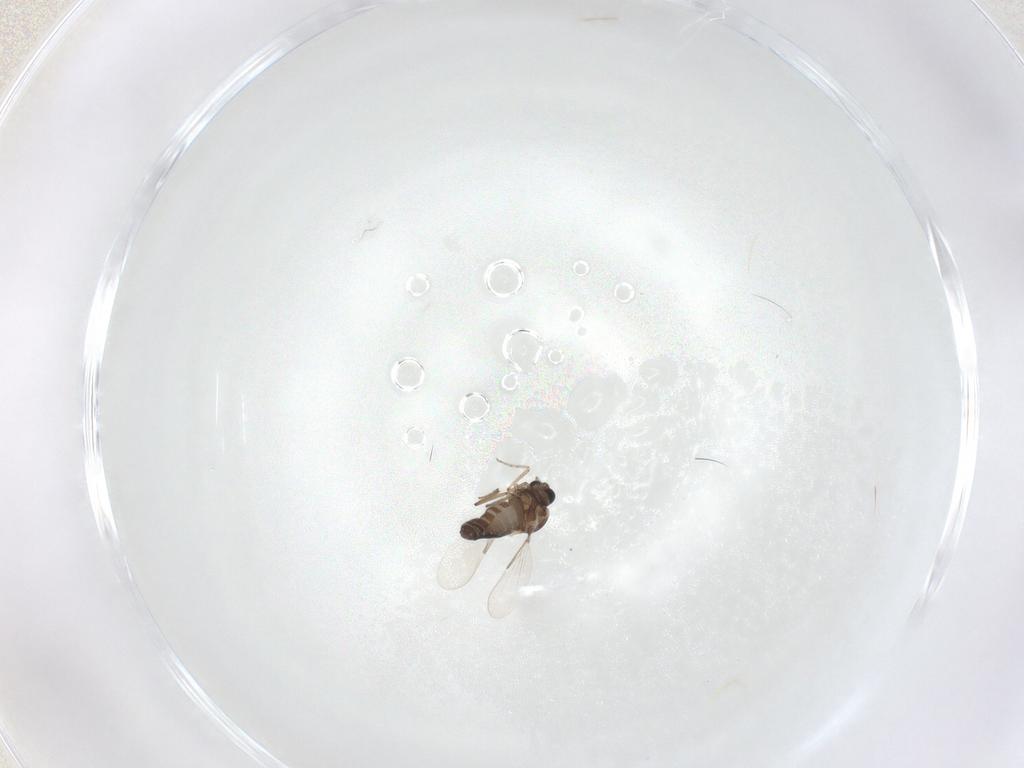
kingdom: Animalia
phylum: Arthropoda
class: Insecta
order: Diptera
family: Ceratopogonidae
